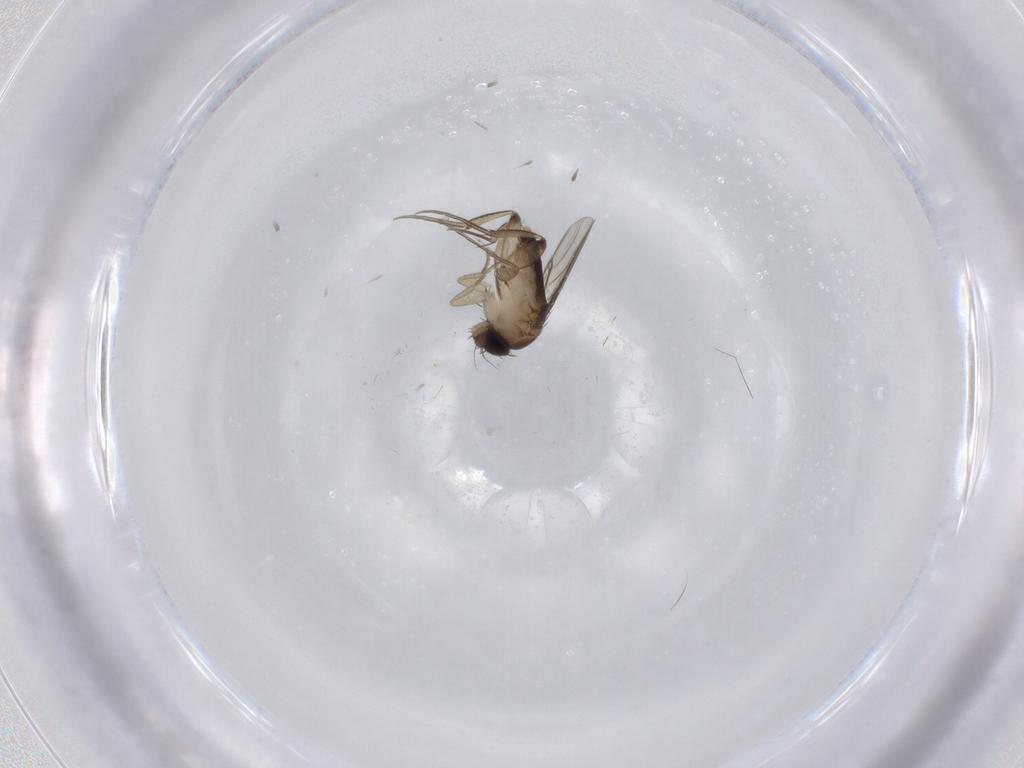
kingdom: Animalia
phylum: Arthropoda
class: Insecta
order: Diptera
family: Phoridae
